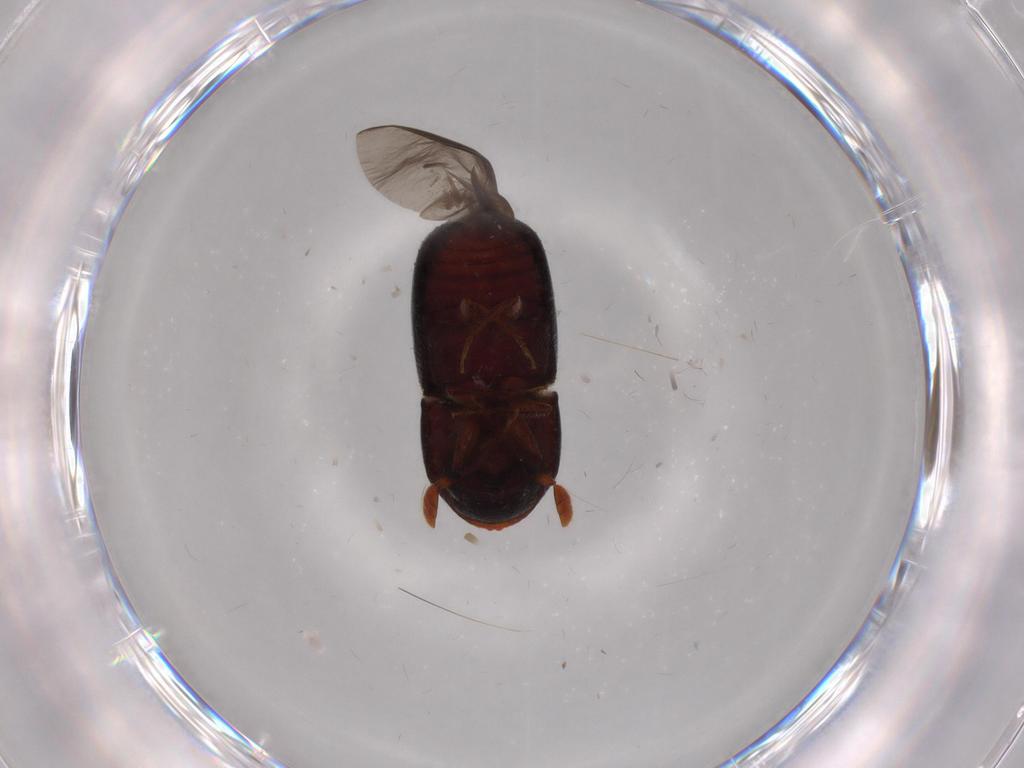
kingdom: Animalia
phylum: Arthropoda
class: Insecta
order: Coleoptera
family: Curculionidae
